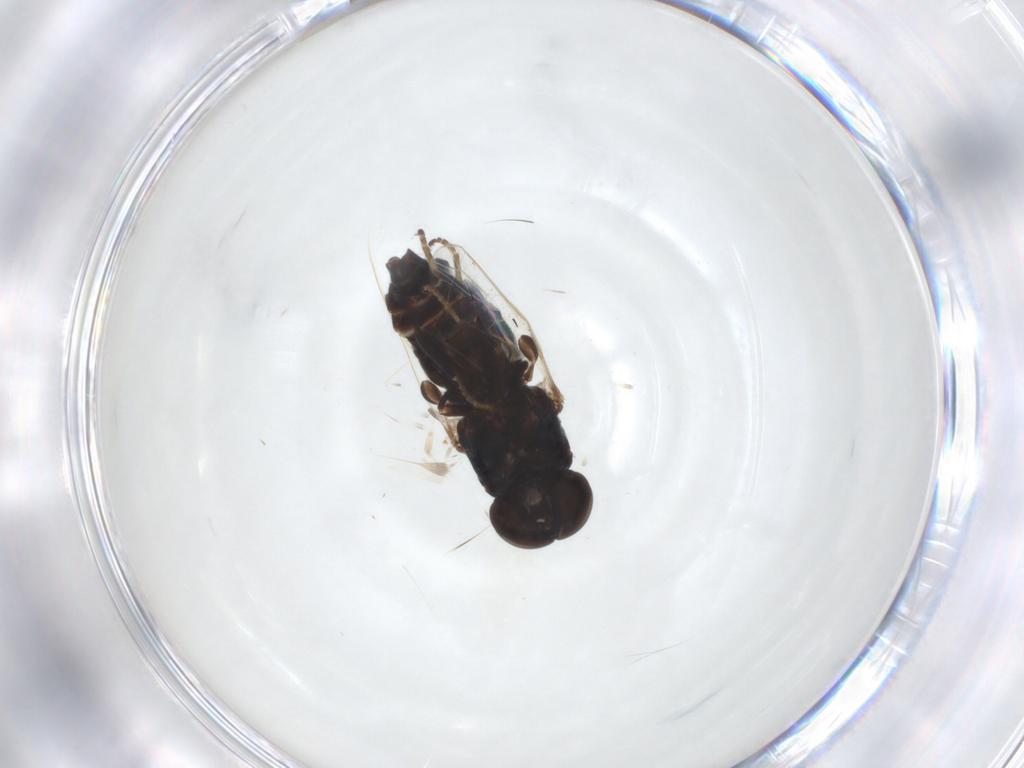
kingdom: Animalia
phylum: Arthropoda
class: Insecta
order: Diptera
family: Scenopinidae
